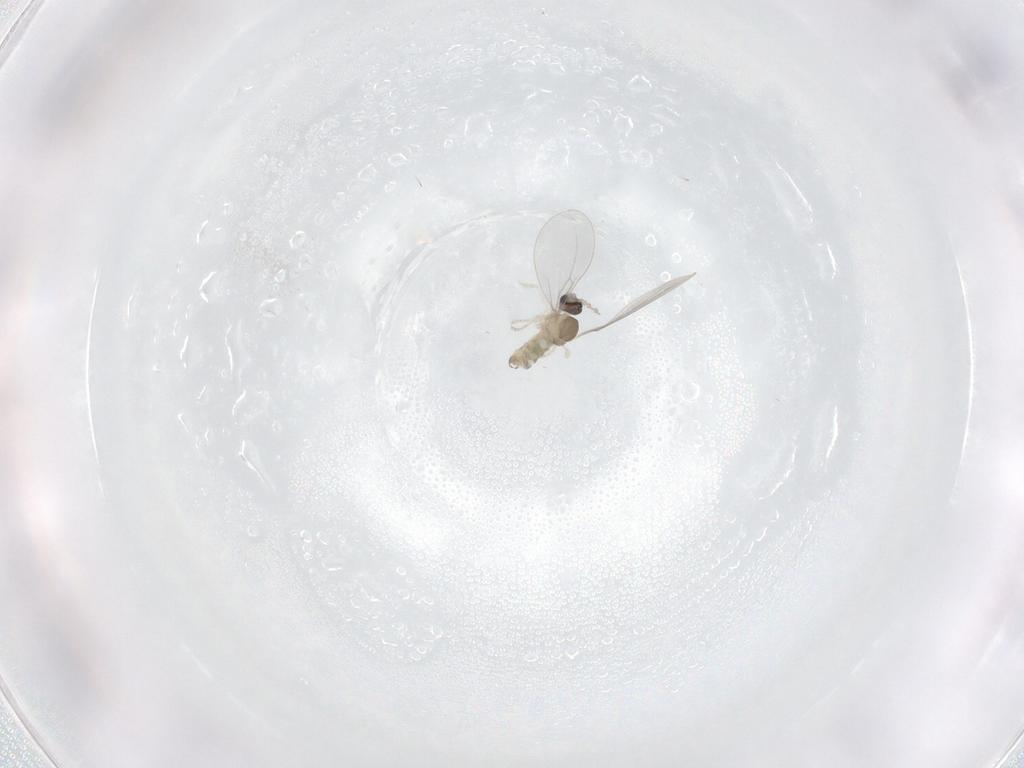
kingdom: Animalia
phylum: Arthropoda
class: Insecta
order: Diptera
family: Cecidomyiidae
